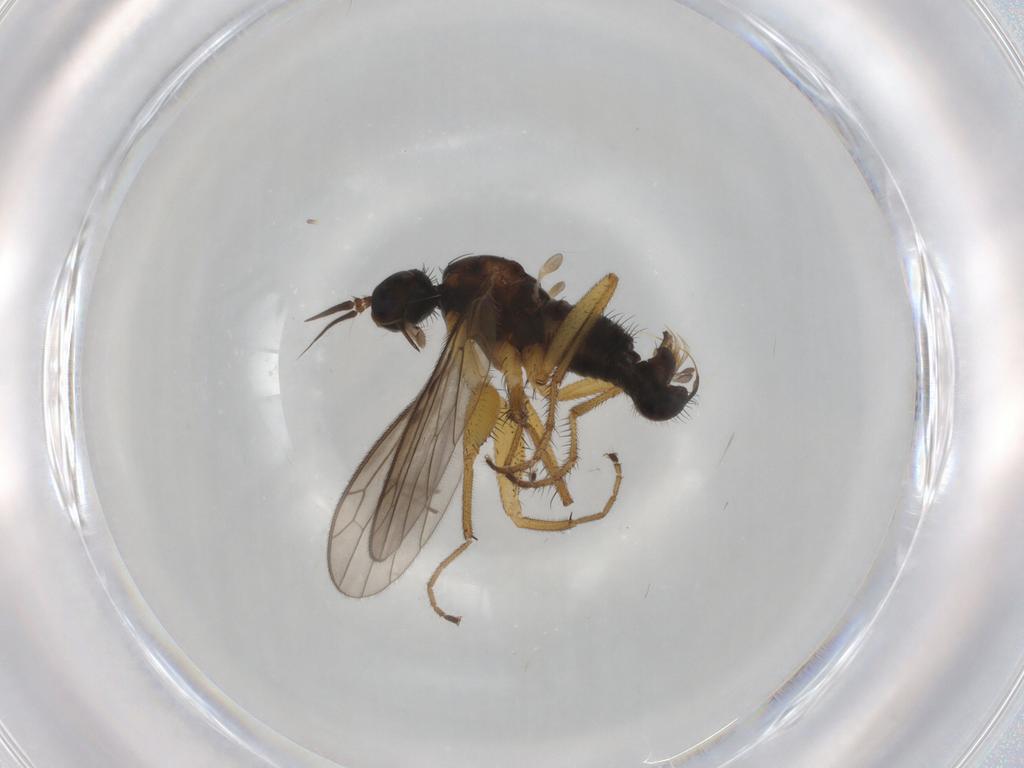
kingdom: Animalia
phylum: Arthropoda
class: Insecta
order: Diptera
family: Ceratopogonidae
